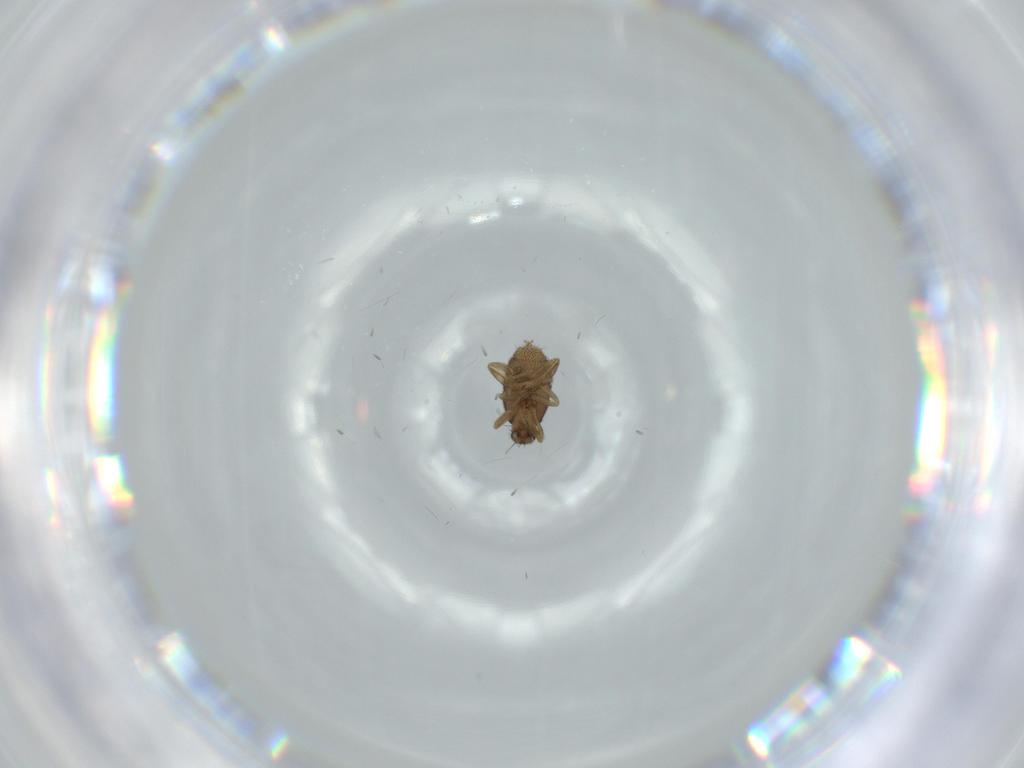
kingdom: Animalia
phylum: Arthropoda
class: Insecta
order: Diptera
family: Phoridae
